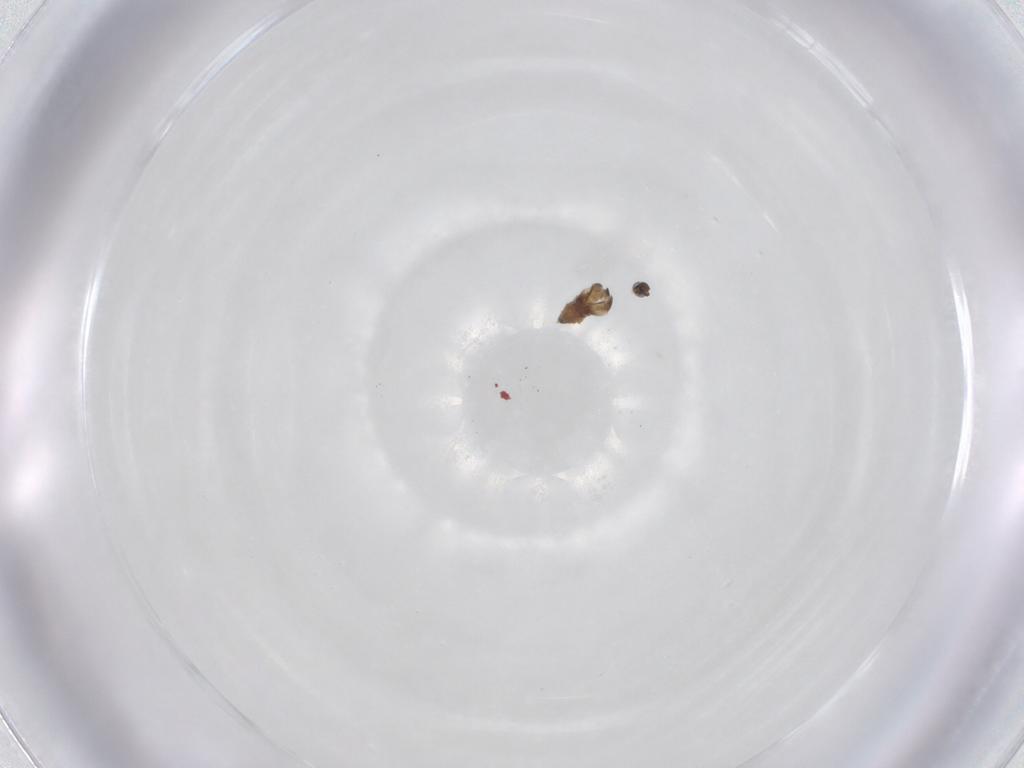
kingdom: Animalia
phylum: Arthropoda
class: Insecta
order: Diptera
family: Cecidomyiidae
